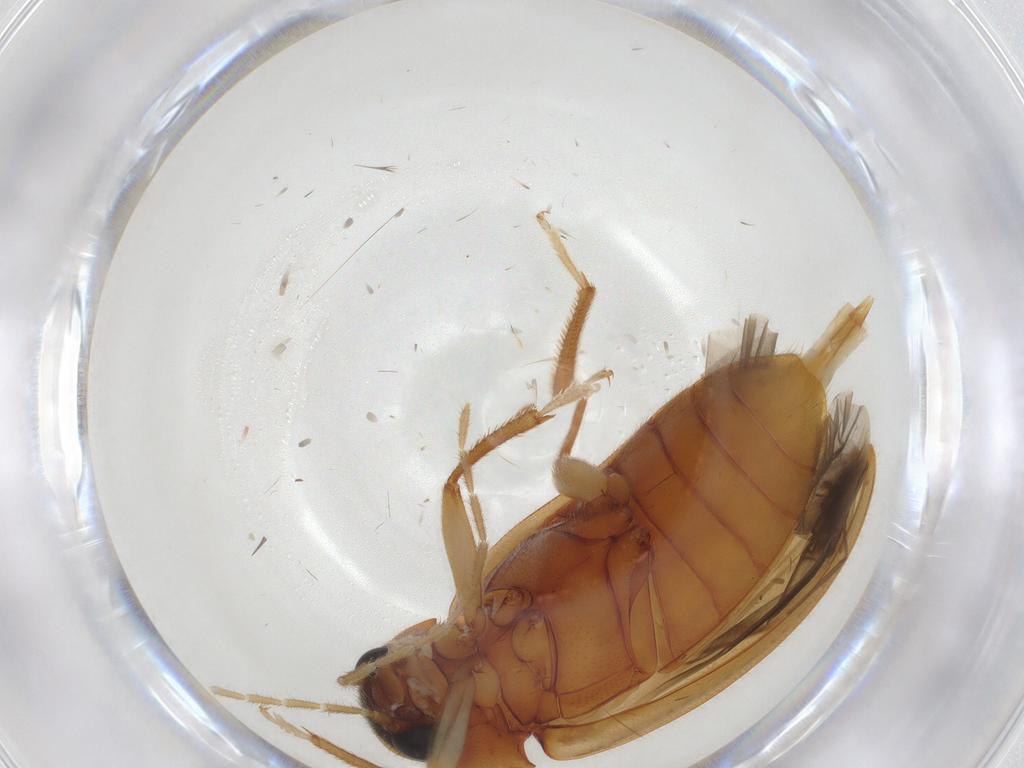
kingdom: Animalia
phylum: Arthropoda
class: Insecta
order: Coleoptera
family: Ptilodactylidae
